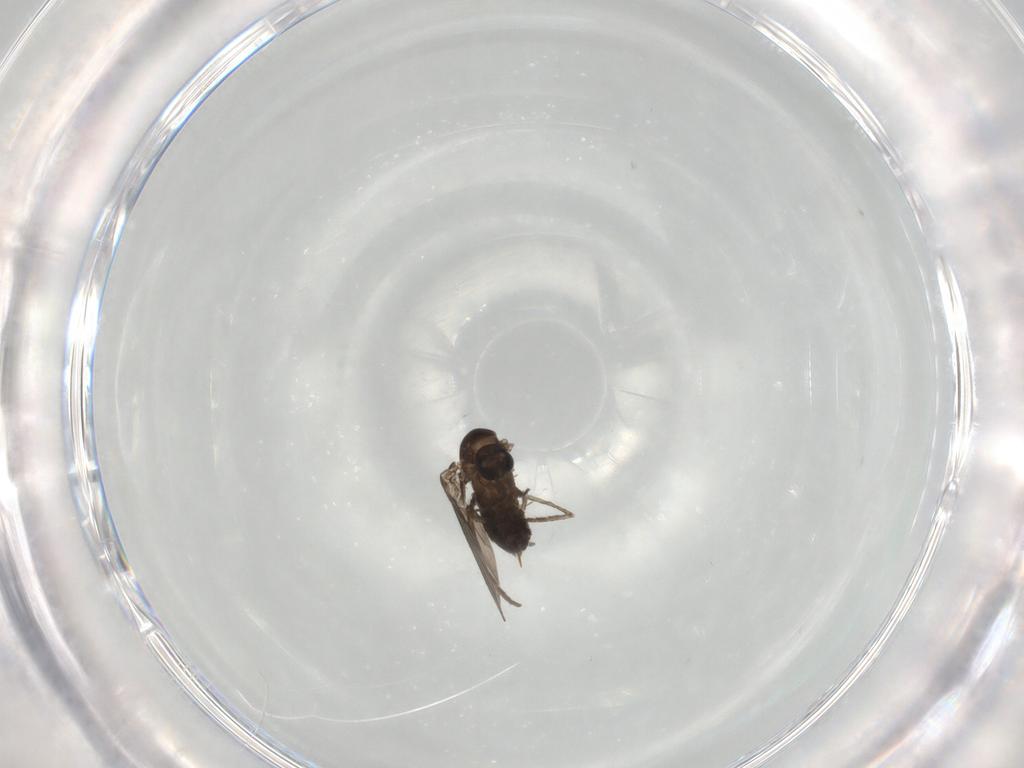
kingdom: Animalia
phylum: Arthropoda
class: Insecta
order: Diptera
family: Psychodidae
